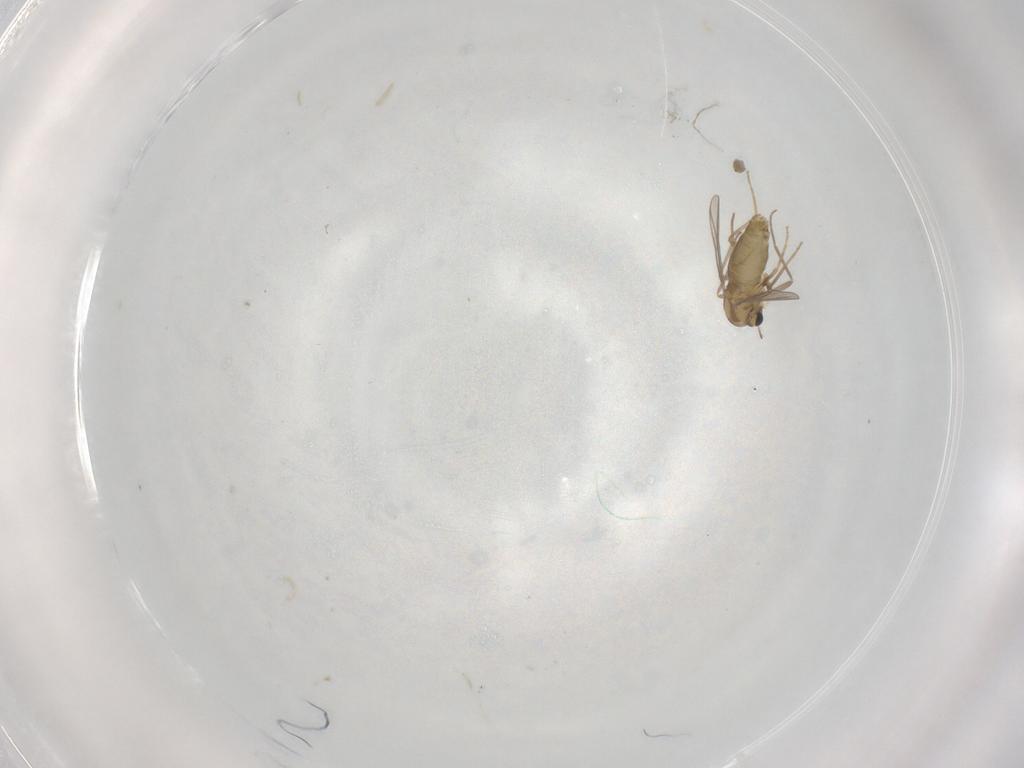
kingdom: Animalia
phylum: Arthropoda
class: Insecta
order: Diptera
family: Chironomidae
